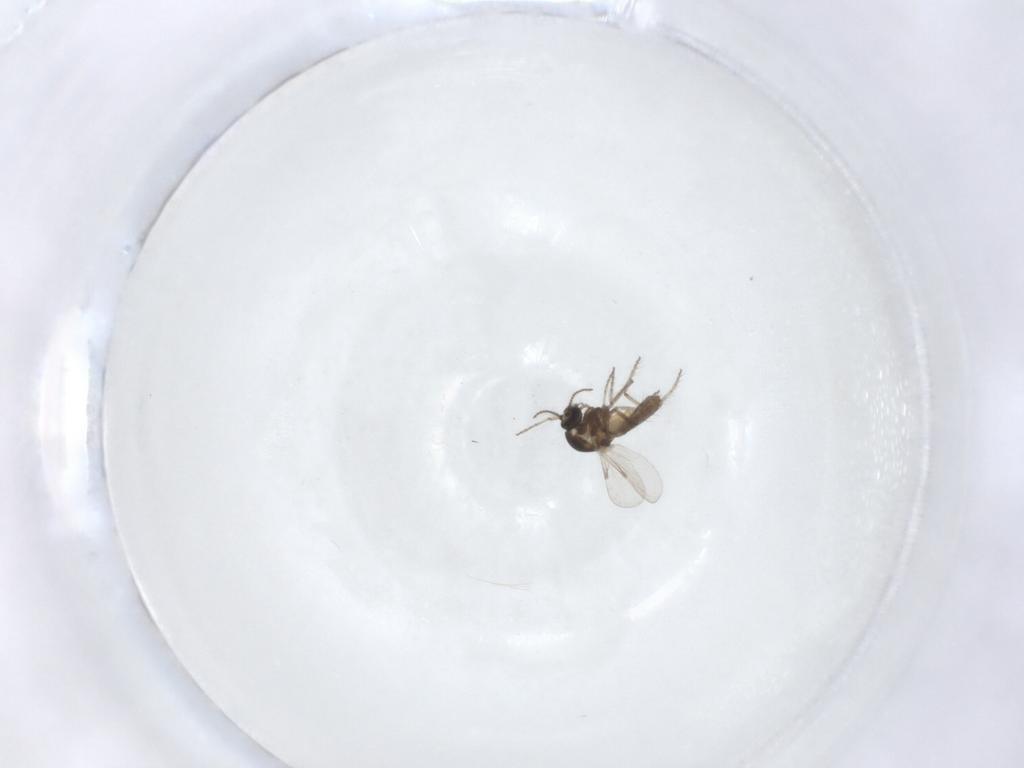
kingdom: Animalia
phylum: Arthropoda
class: Insecta
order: Diptera
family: Ceratopogonidae
